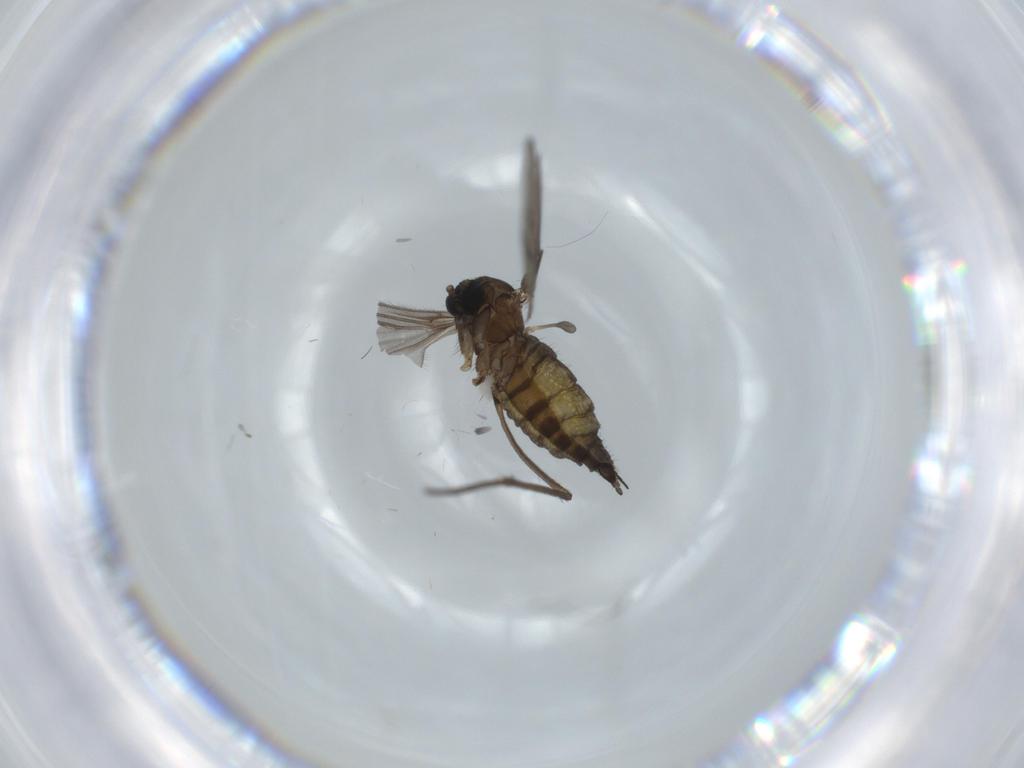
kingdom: Animalia
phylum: Arthropoda
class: Insecta
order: Diptera
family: Sciaridae
